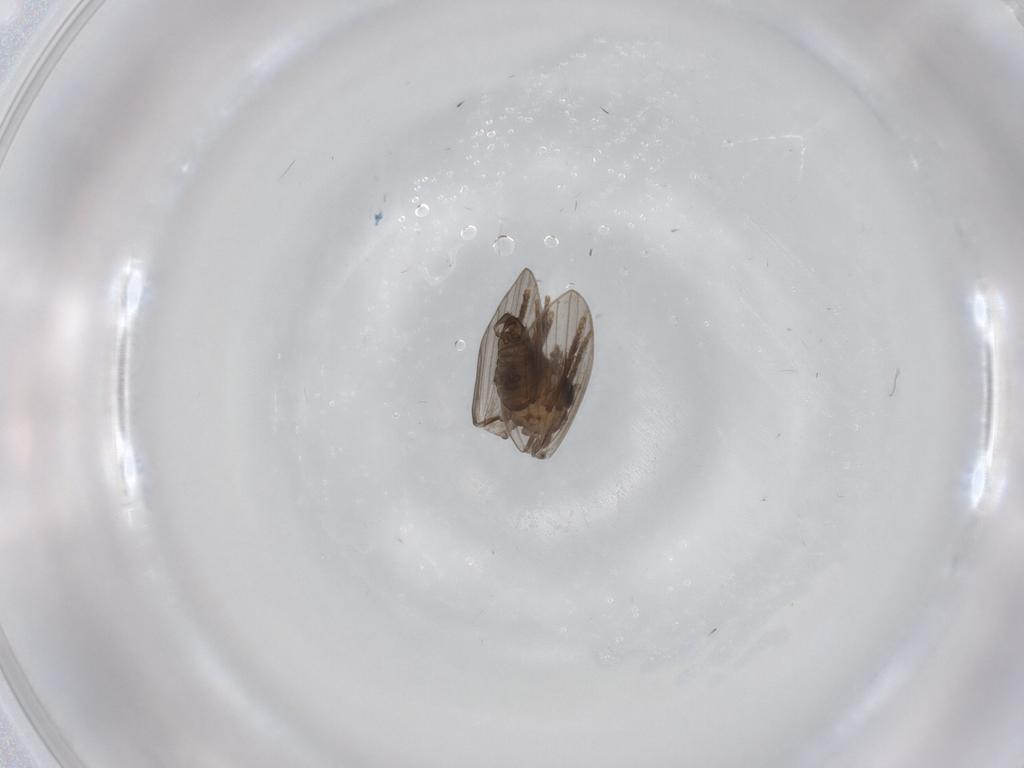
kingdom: Animalia
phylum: Arthropoda
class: Insecta
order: Diptera
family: Psychodidae
